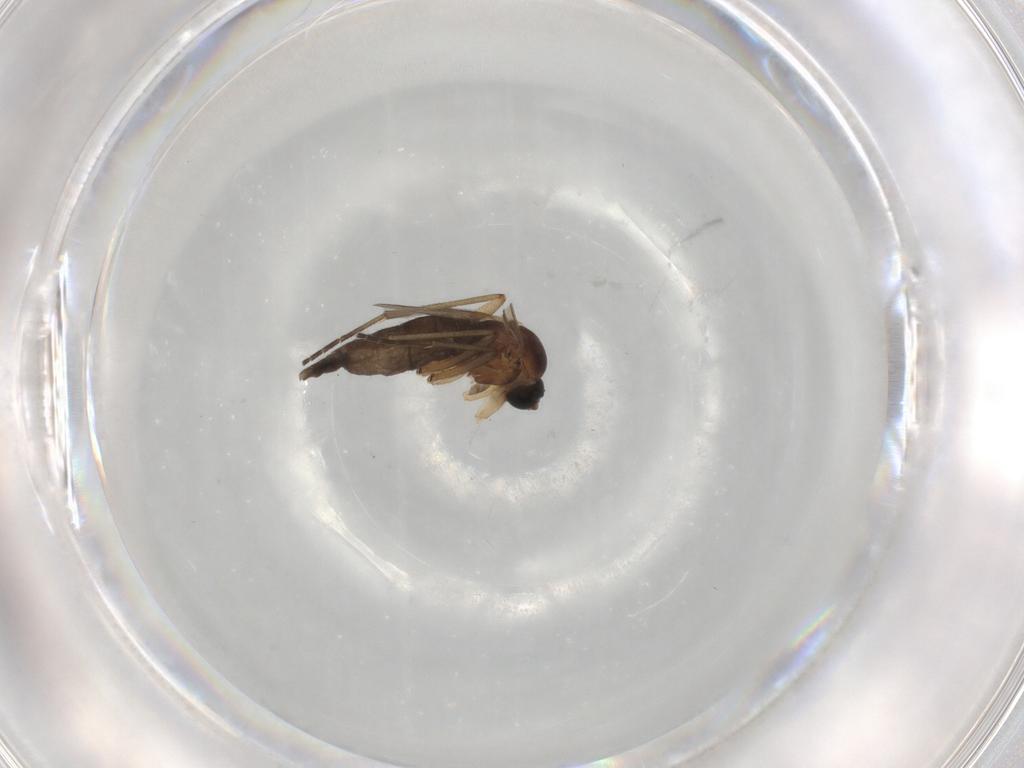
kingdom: Animalia
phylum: Arthropoda
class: Insecta
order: Diptera
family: Sciaridae
